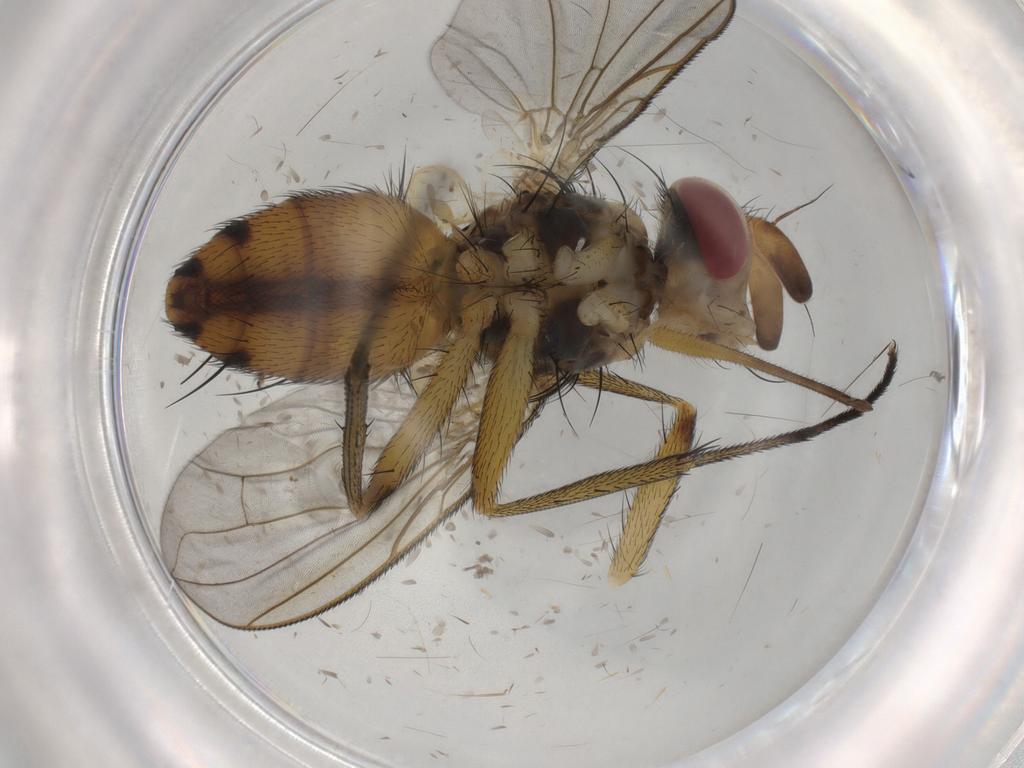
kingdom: Animalia
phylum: Arthropoda
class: Insecta
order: Diptera
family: Tachinidae
